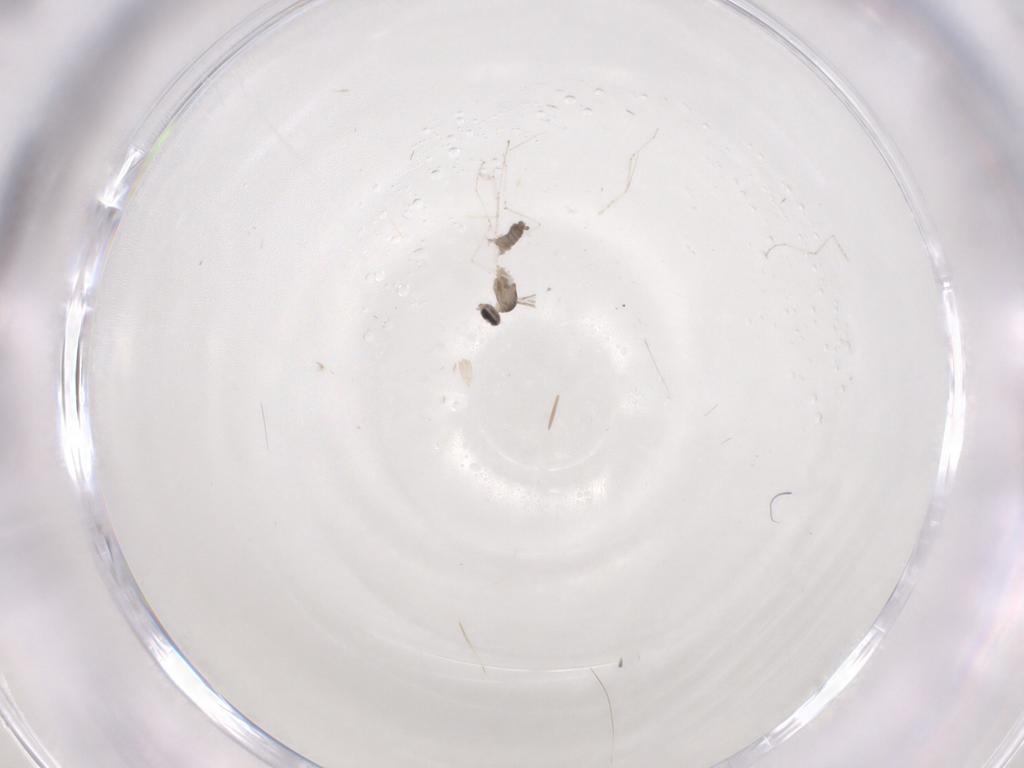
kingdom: Animalia
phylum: Arthropoda
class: Insecta
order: Diptera
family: Cecidomyiidae
